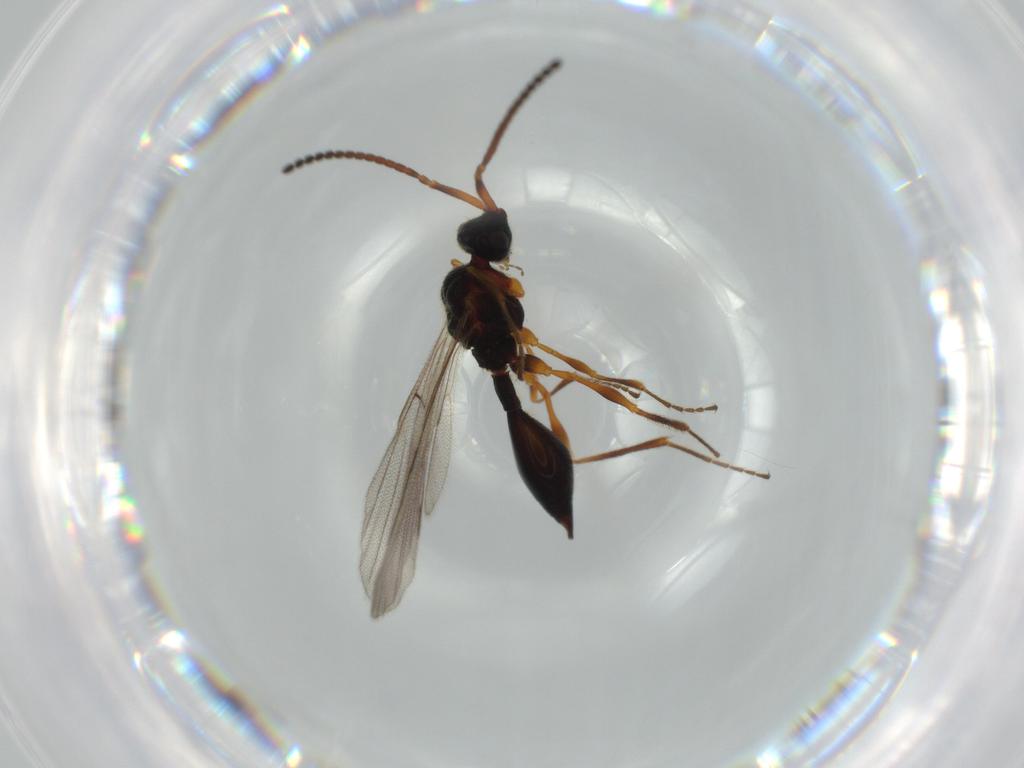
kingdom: Animalia
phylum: Arthropoda
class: Insecta
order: Hymenoptera
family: Diapriidae
